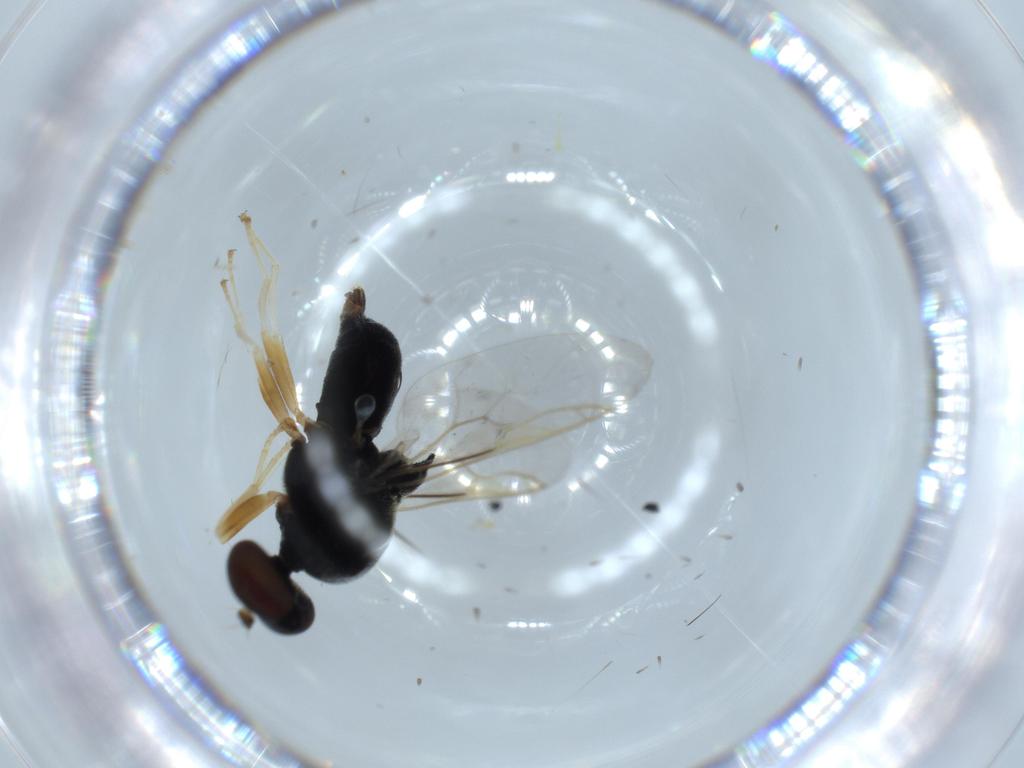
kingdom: Animalia
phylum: Arthropoda
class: Insecta
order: Diptera
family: Stratiomyidae
